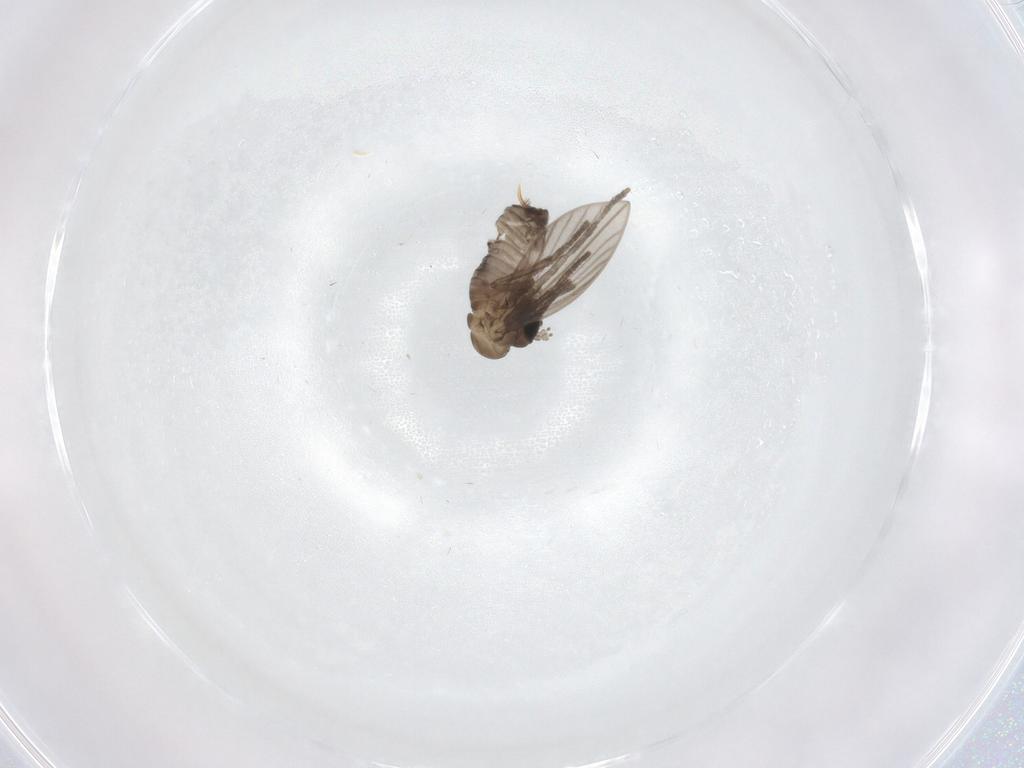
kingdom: Animalia
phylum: Arthropoda
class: Insecta
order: Diptera
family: Psychodidae
